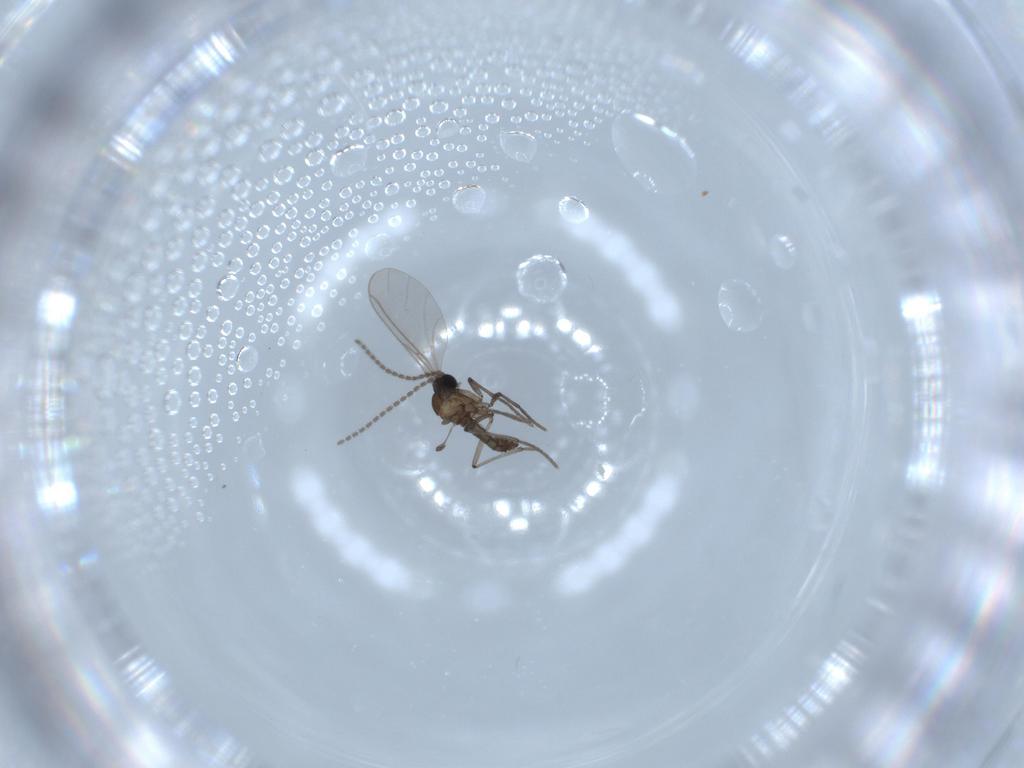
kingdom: Animalia
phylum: Arthropoda
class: Insecta
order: Diptera
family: Sciaridae
